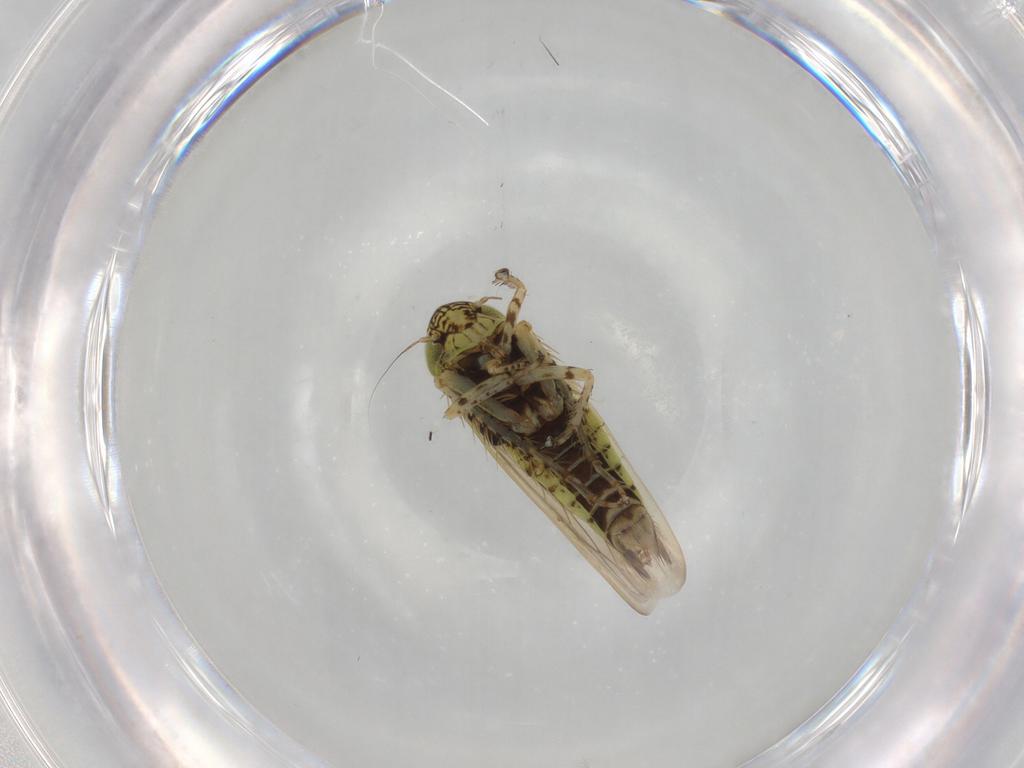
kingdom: Animalia
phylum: Arthropoda
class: Insecta
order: Hemiptera
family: Cicadellidae
